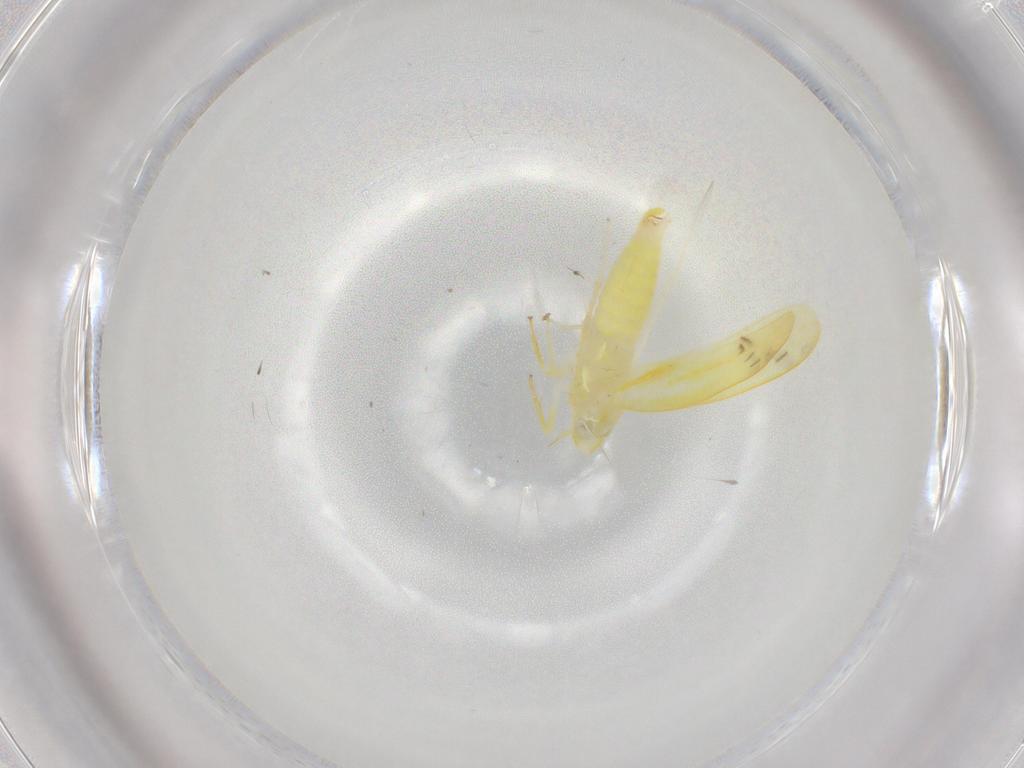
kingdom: Animalia
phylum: Arthropoda
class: Insecta
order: Hemiptera
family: Cicadellidae
